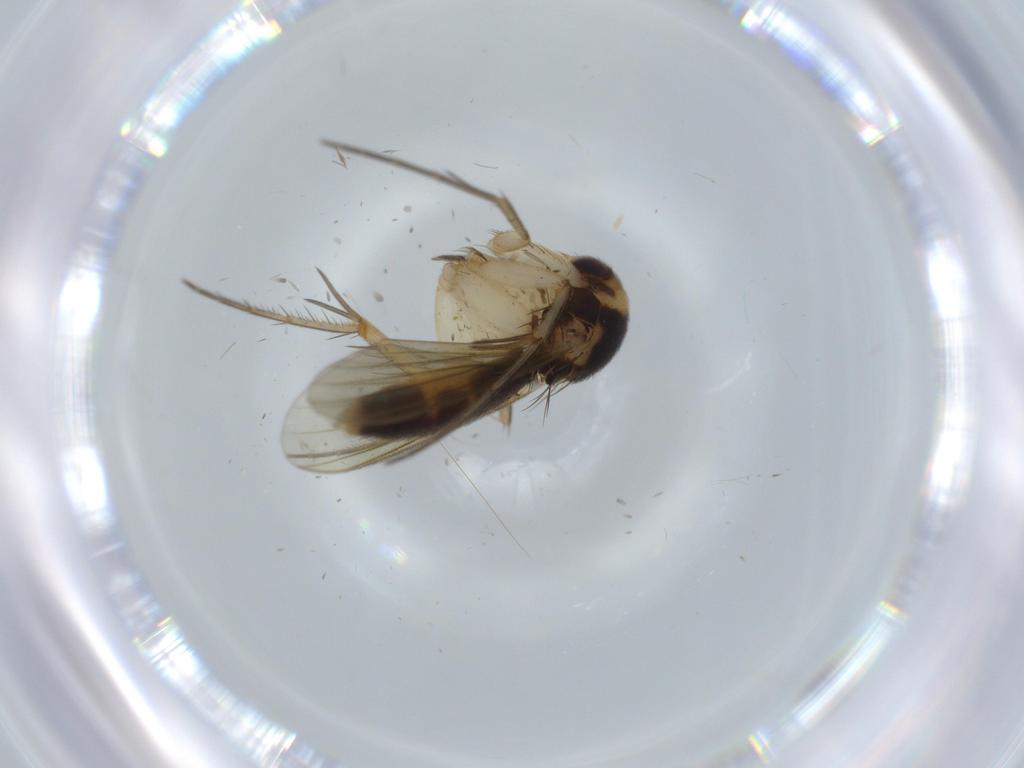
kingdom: Animalia
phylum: Arthropoda
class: Insecta
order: Diptera
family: Mycetophilidae
